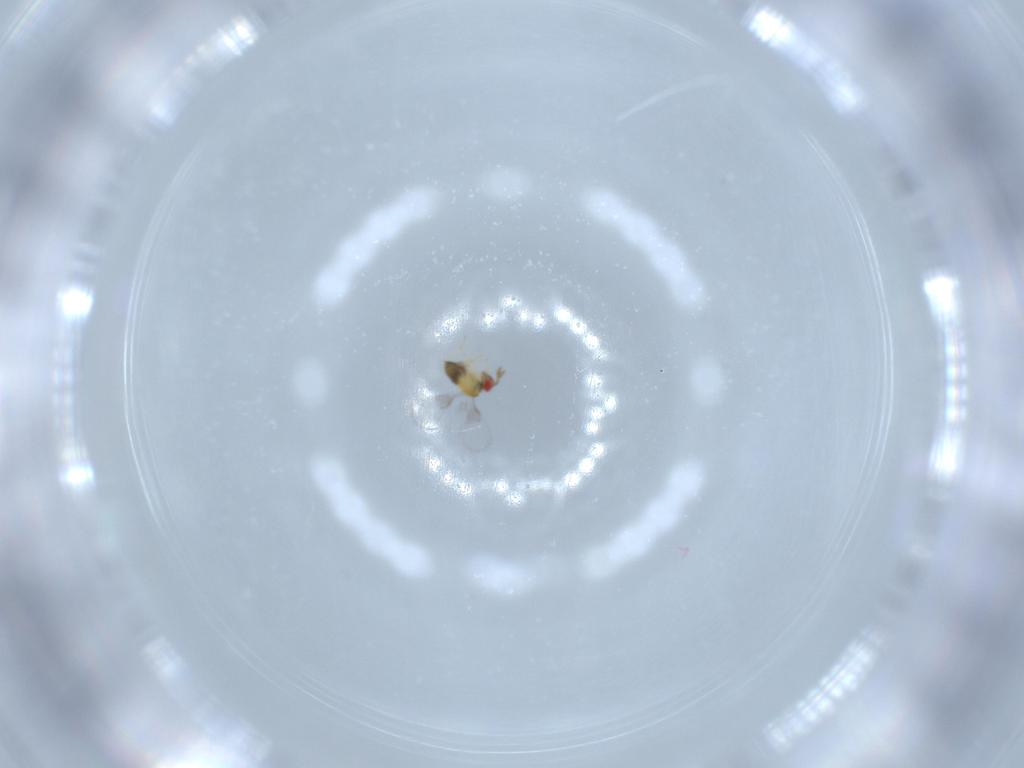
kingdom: Animalia
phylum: Arthropoda
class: Insecta
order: Hymenoptera
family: Trichogrammatidae
